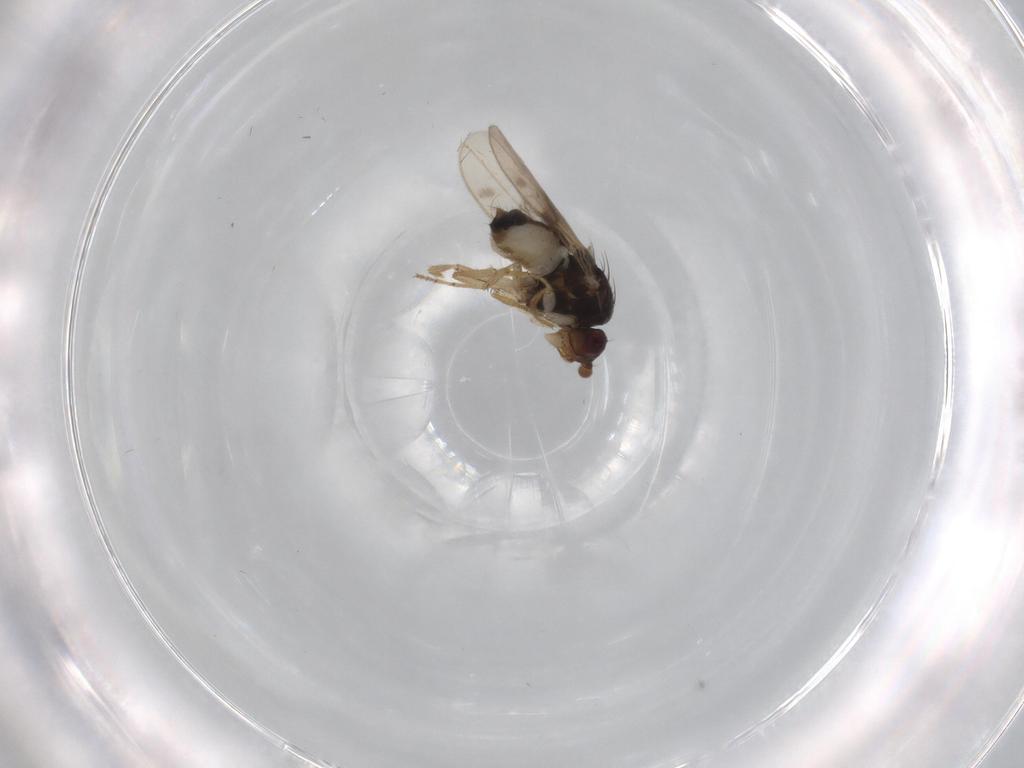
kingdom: Animalia
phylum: Arthropoda
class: Insecta
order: Diptera
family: Sphaeroceridae
